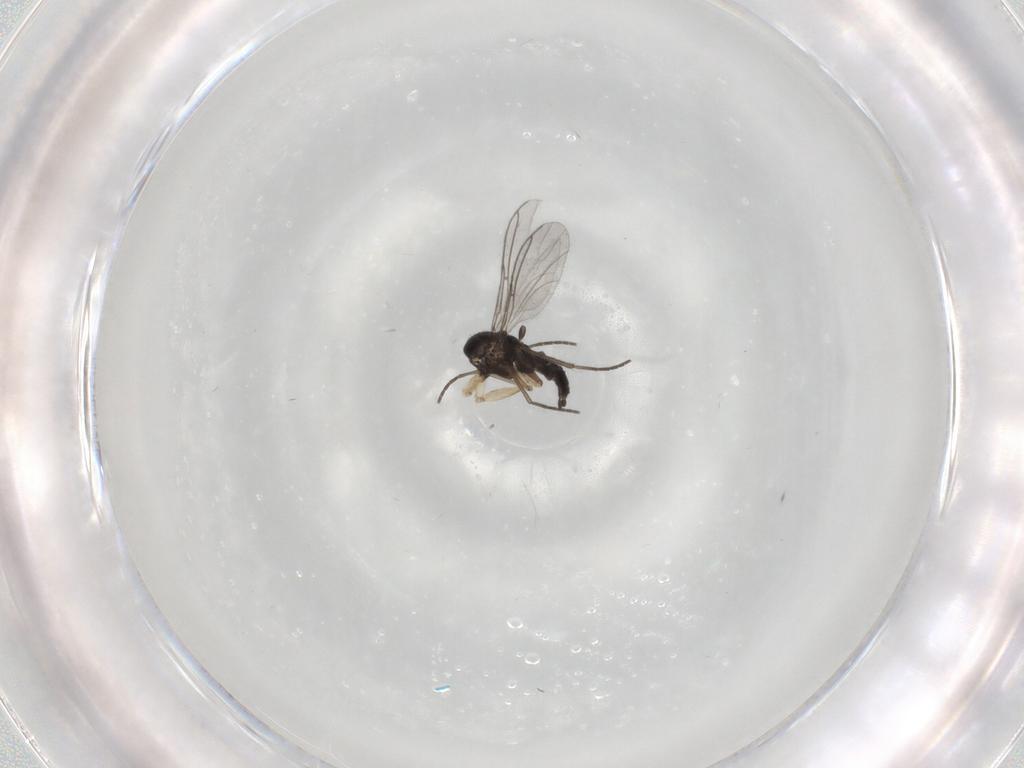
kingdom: Animalia
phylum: Arthropoda
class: Insecta
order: Diptera
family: Sciaridae
